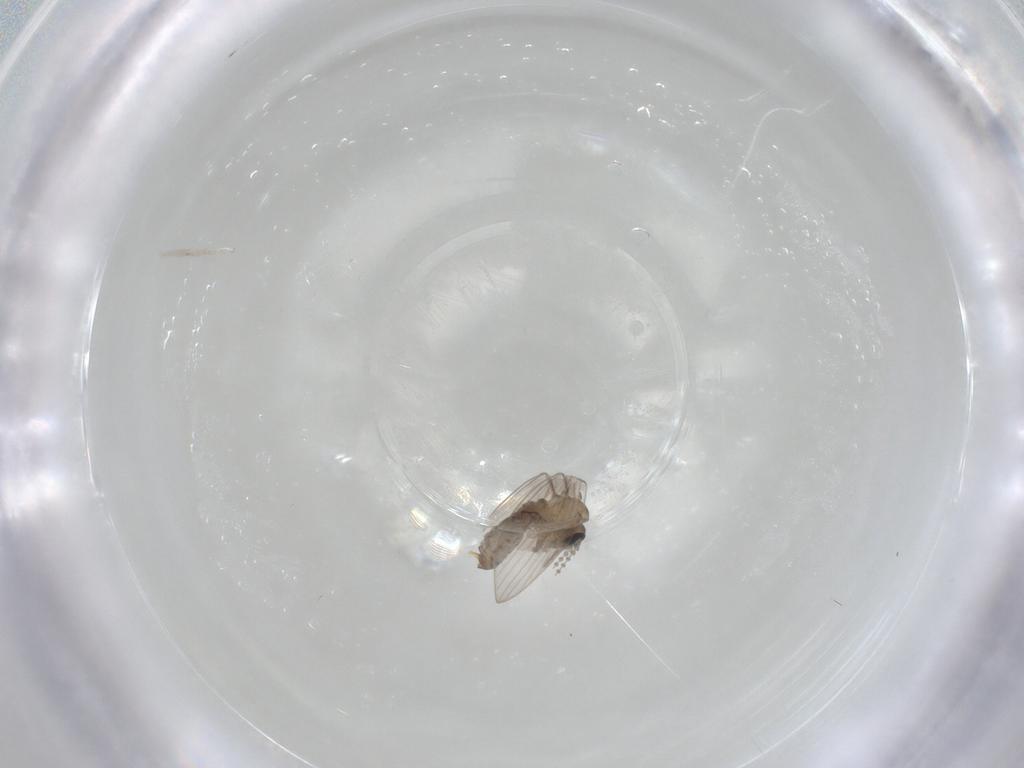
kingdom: Animalia
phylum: Arthropoda
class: Insecta
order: Diptera
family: Psychodidae
